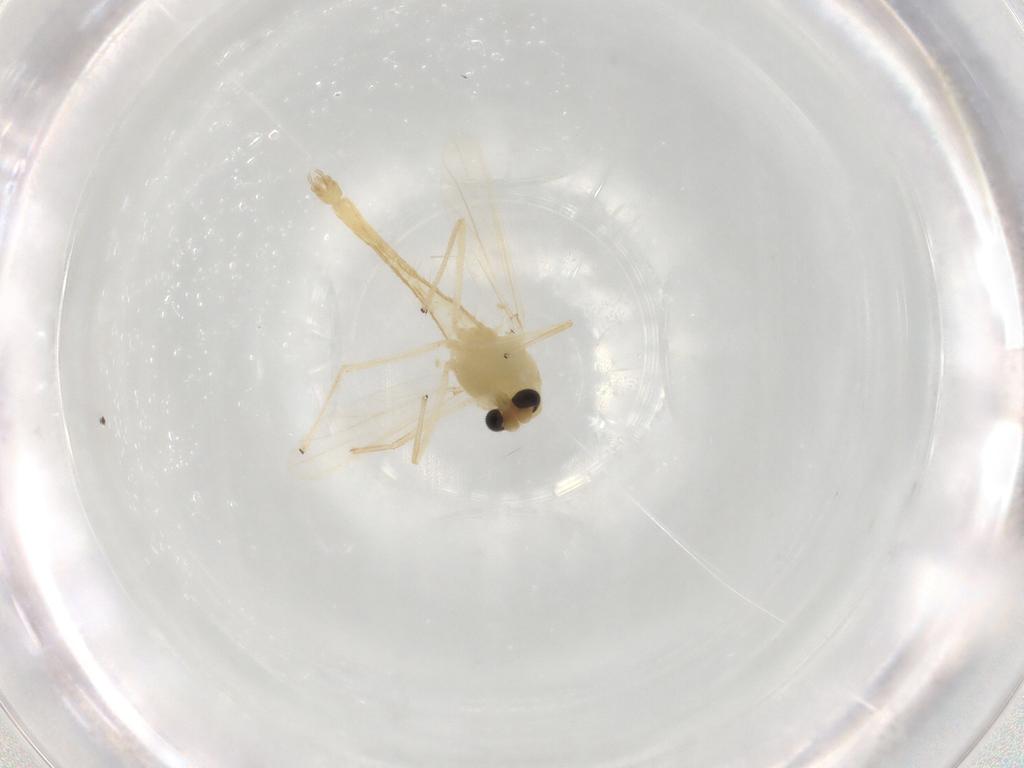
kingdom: Animalia
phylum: Arthropoda
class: Insecta
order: Diptera
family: Chironomidae
